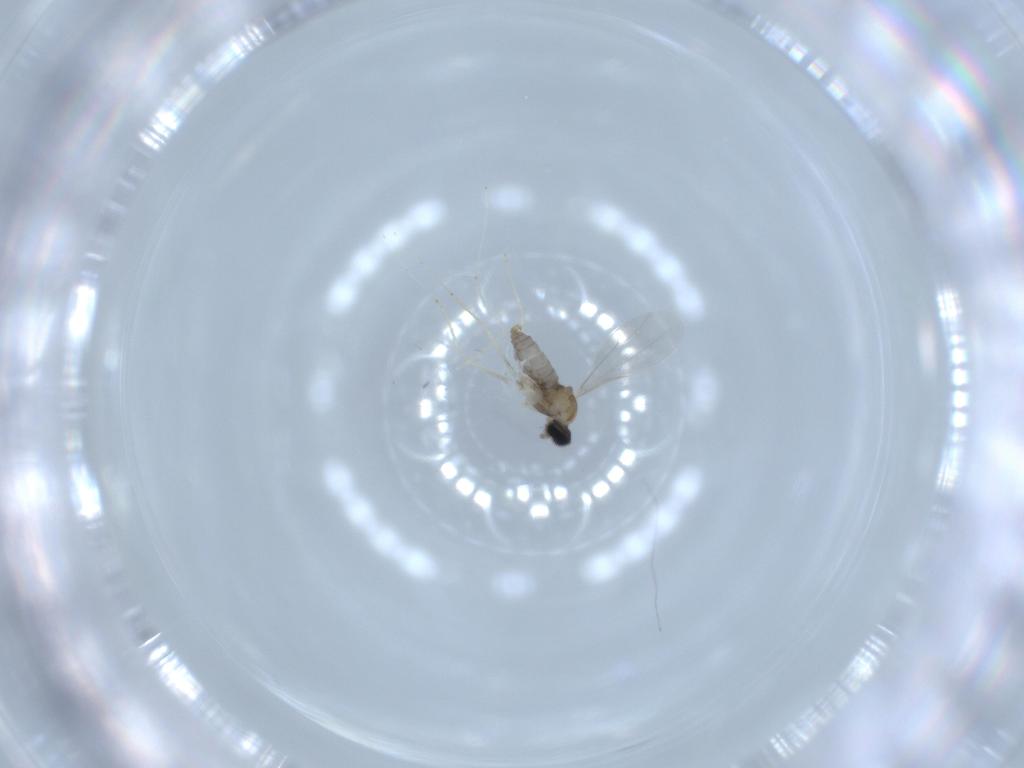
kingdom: Animalia
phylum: Arthropoda
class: Insecta
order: Diptera
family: Cecidomyiidae
